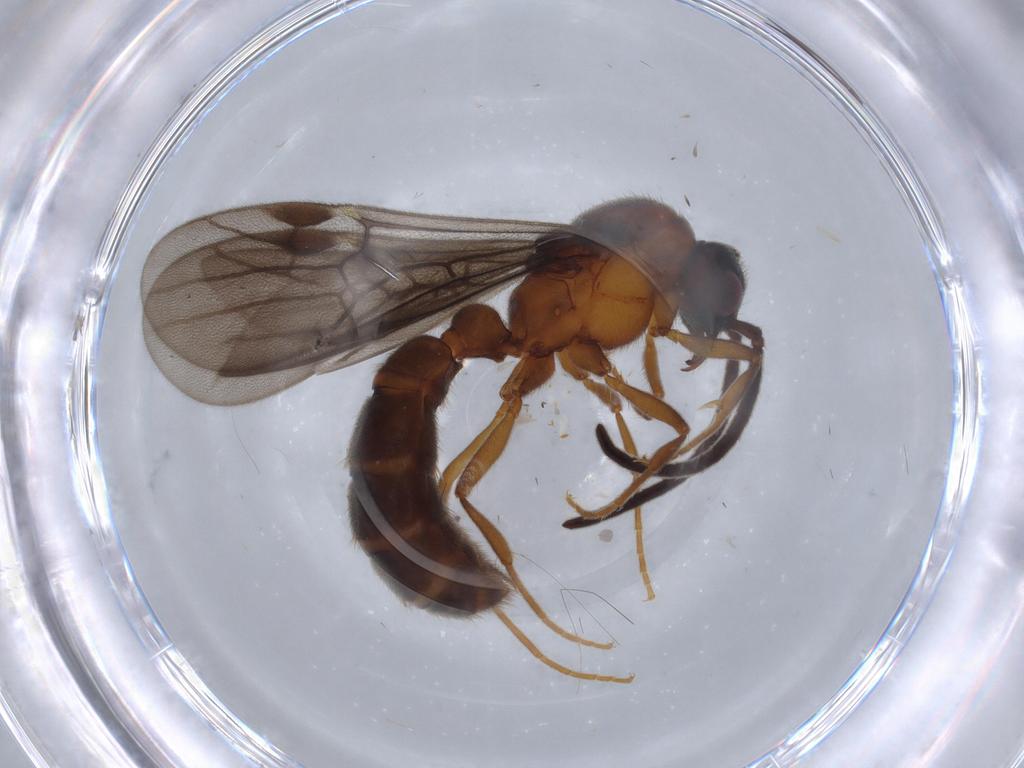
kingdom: Animalia
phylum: Arthropoda
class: Insecta
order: Hymenoptera
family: Formicidae
